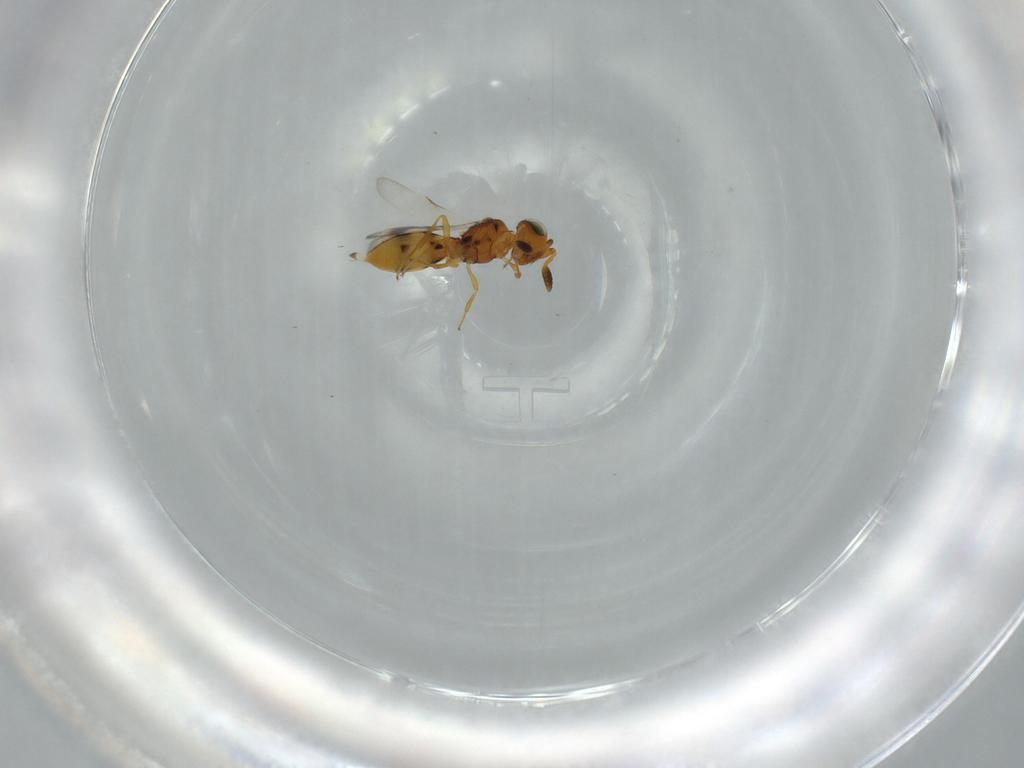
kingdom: Animalia
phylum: Arthropoda
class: Insecta
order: Hymenoptera
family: Scelionidae
